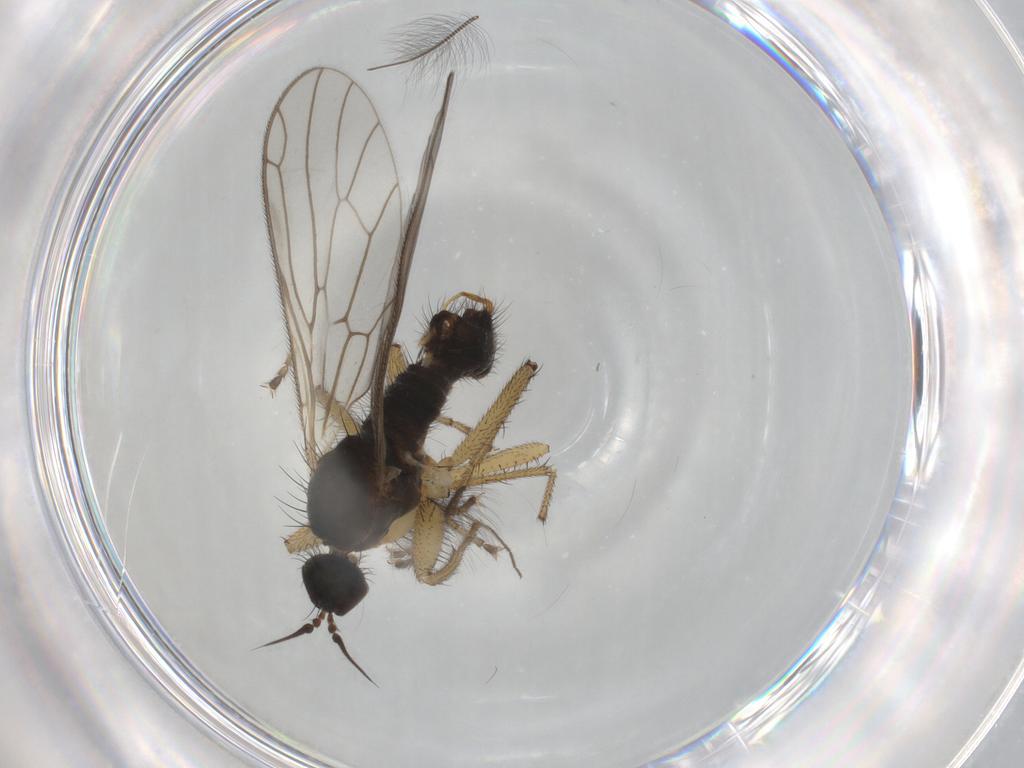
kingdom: Animalia
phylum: Arthropoda
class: Insecta
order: Diptera
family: Empididae
